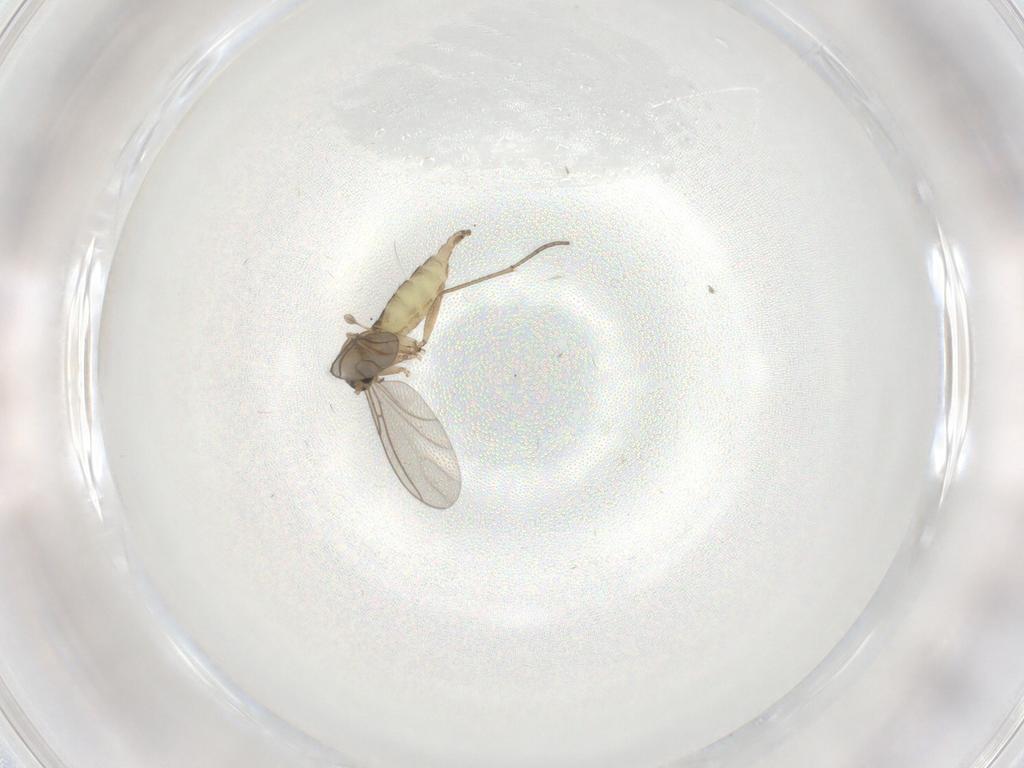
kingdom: Animalia
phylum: Arthropoda
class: Insecta
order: Diptera
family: Sciaridae
